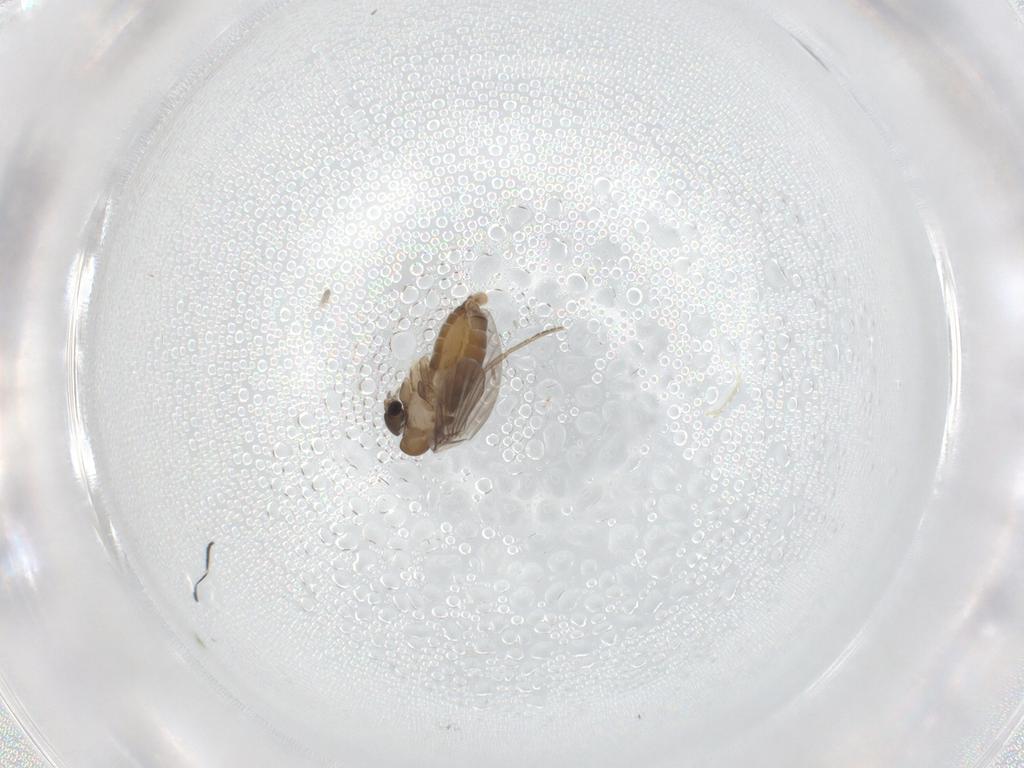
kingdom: Animalia
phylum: Arthropoda
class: Insecta
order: Diptera
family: Ceratopogonidae
